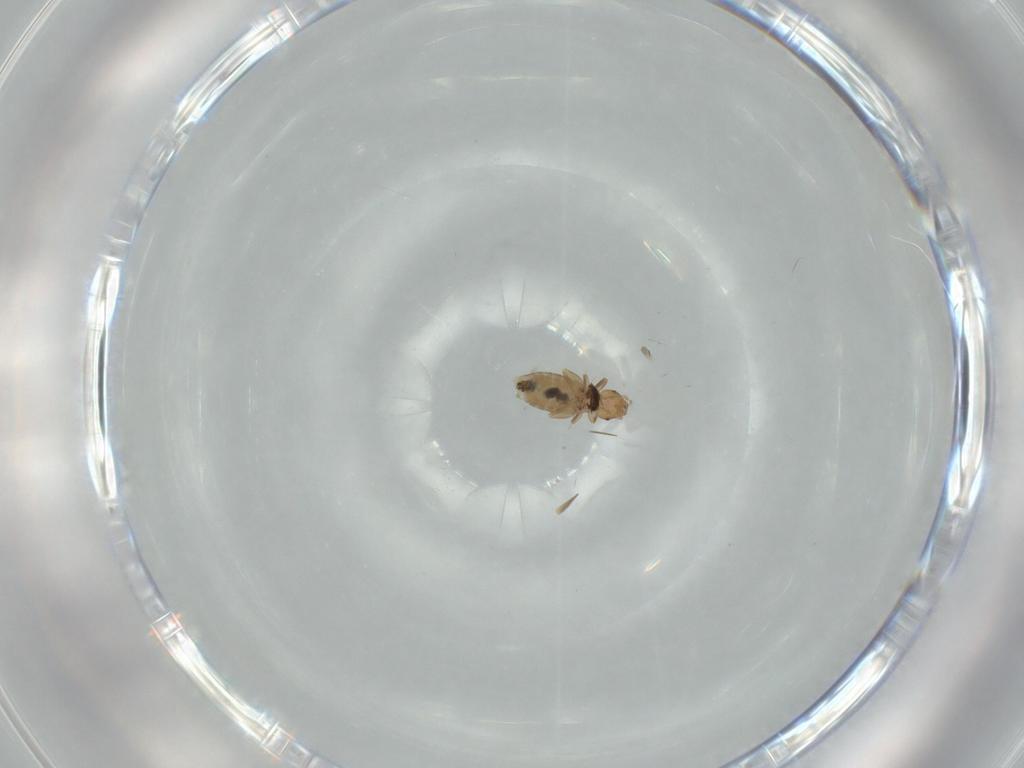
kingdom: Animalia
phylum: Arthropoda
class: Insecta
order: Psocodea
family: Liposcelididae
